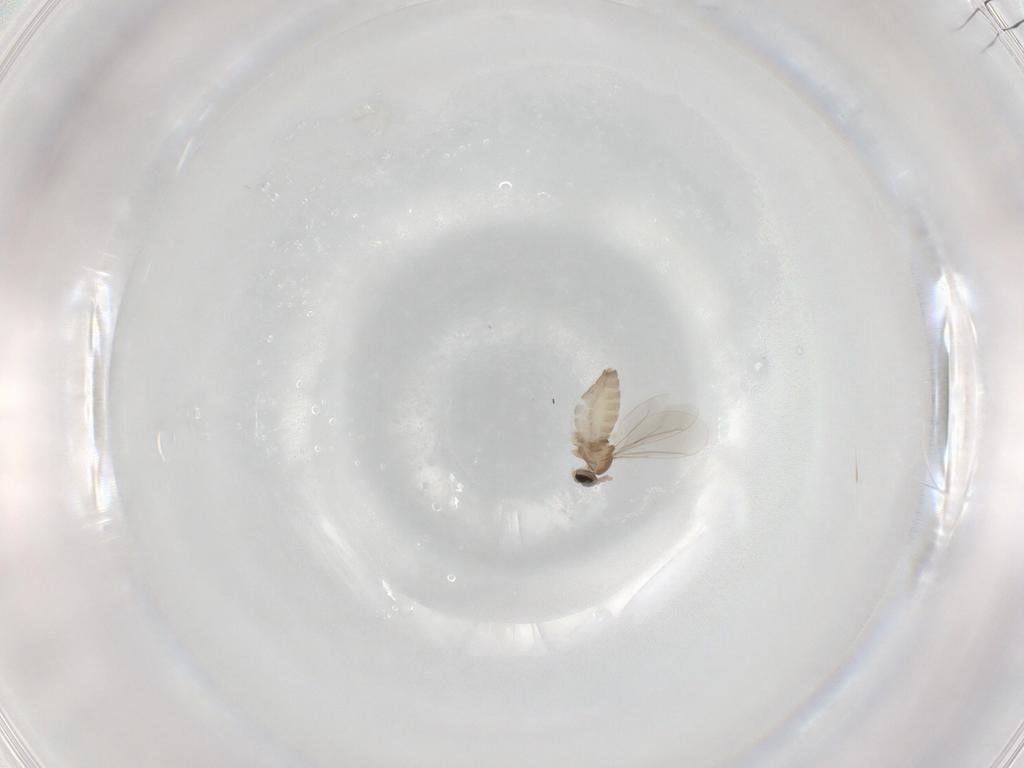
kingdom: Animalia
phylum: Arthropoda
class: Insecta
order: Diptera
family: Cecidomyiidae
